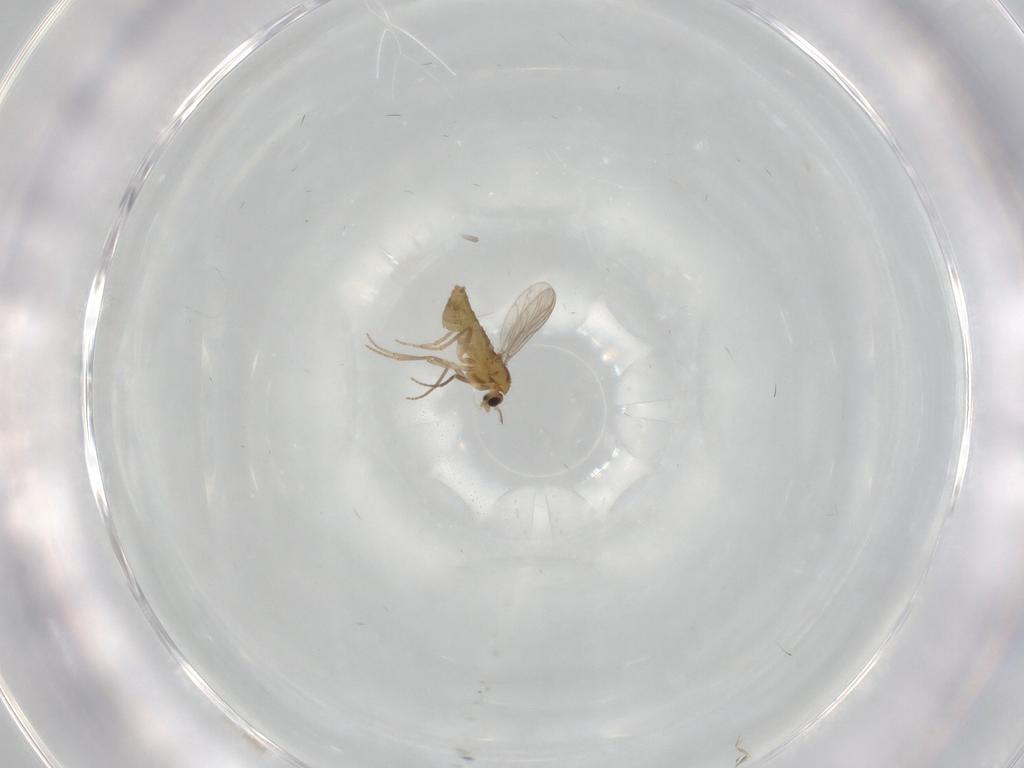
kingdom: Animalia
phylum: Arthropoda
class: Insecta
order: Diptera
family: Chironomidae
